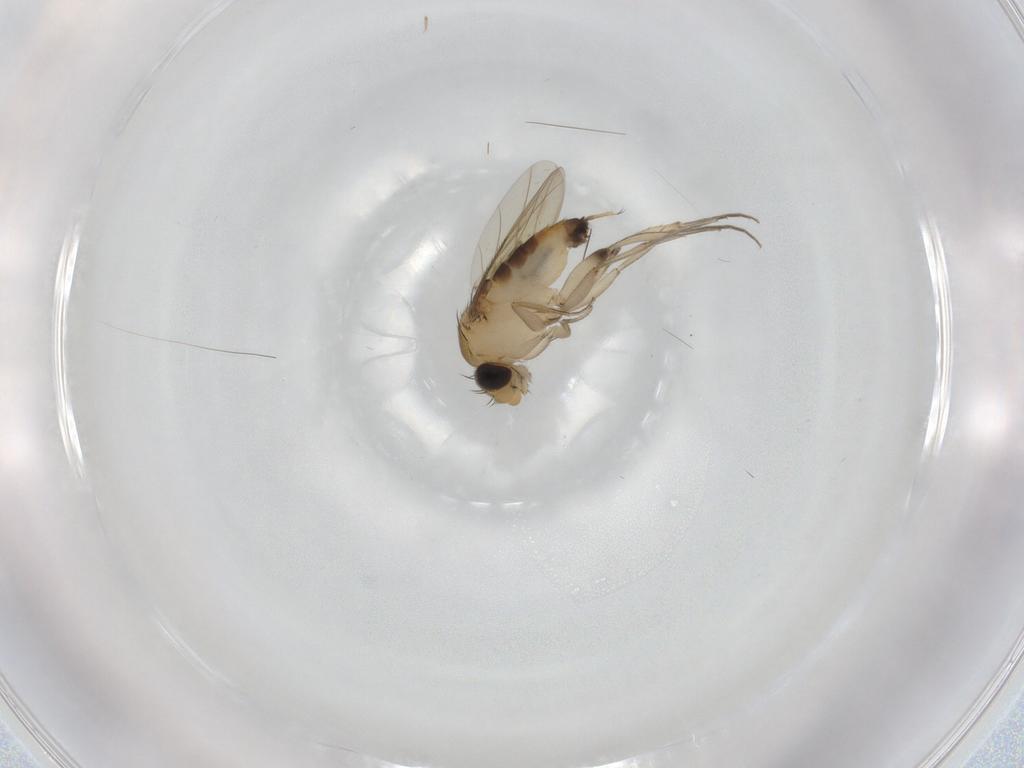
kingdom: Animalia
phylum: Arthropoda
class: Insecta
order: Diptera
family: Phoridae
